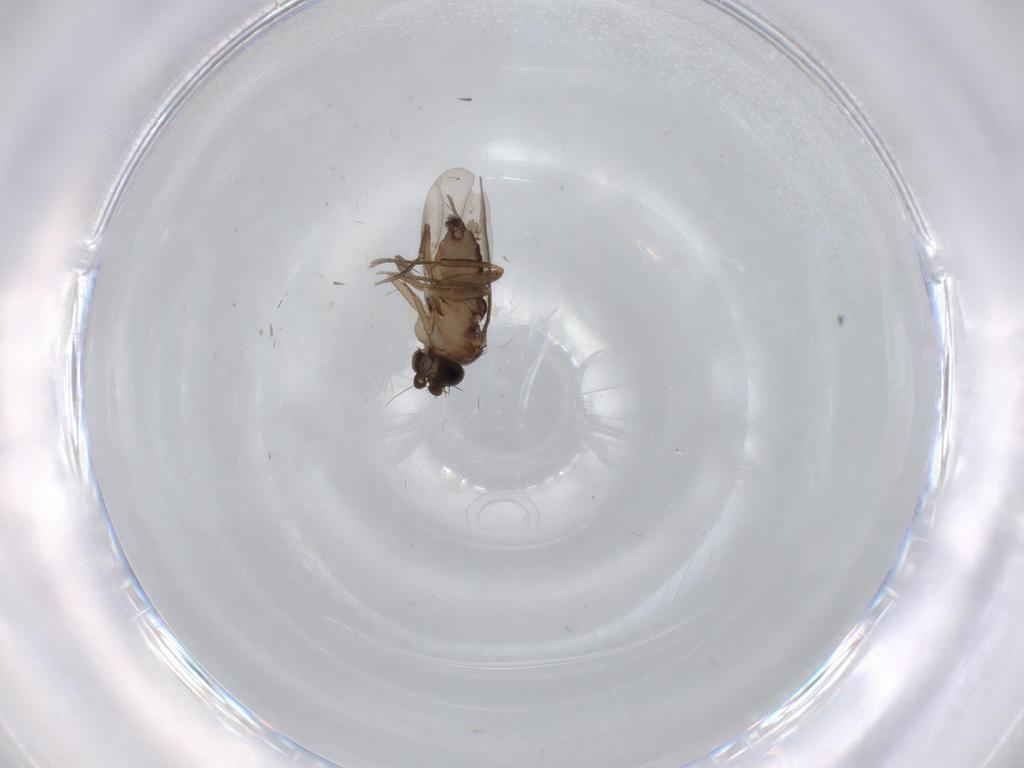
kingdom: Animalia
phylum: Arthropoda
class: Insecta
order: Diptera
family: Phoridae
